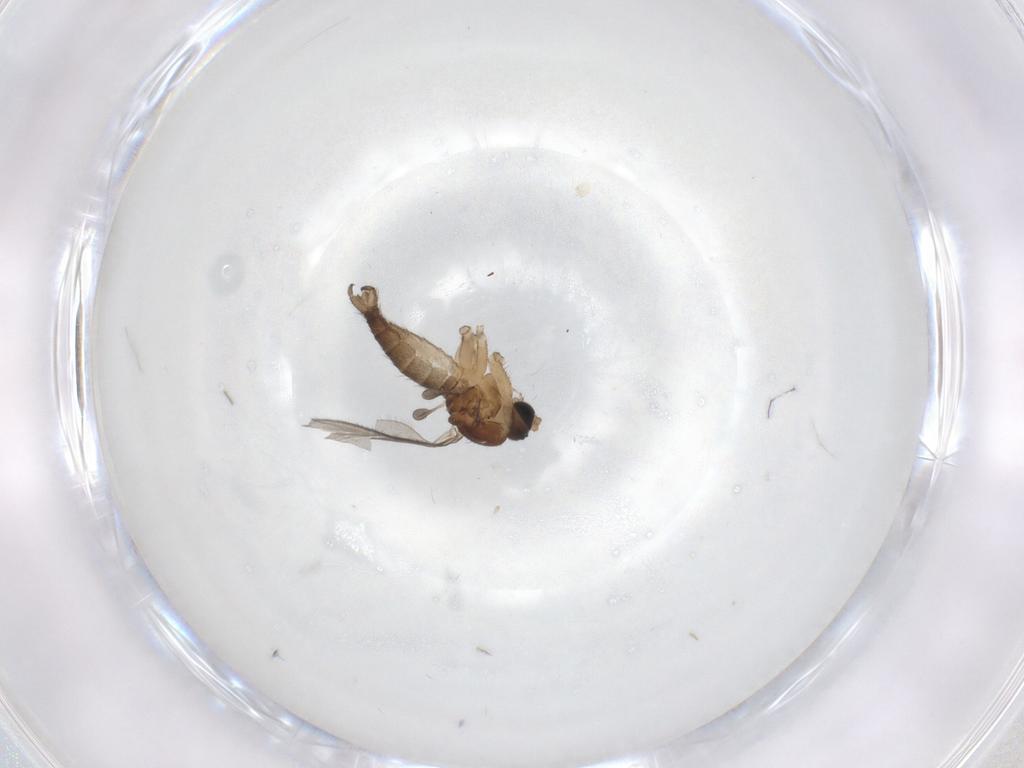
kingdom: Animalia
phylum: Arthropoda
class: Insecta
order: Diptera
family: Sciaridae
